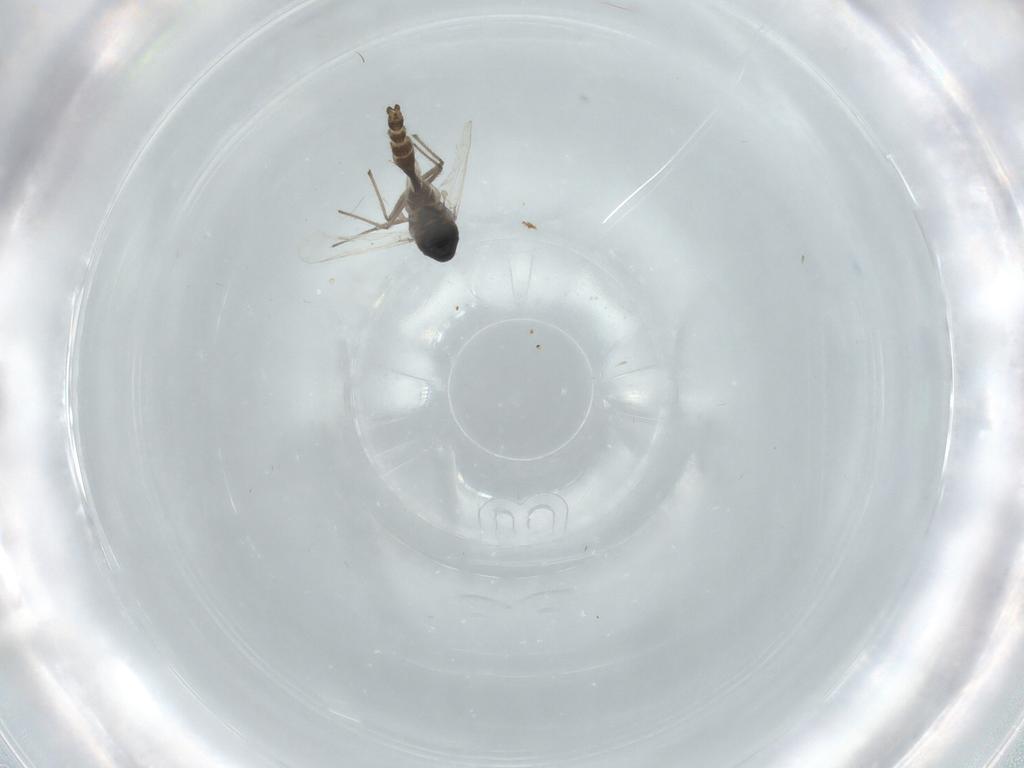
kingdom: Animalia
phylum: Arthropoda
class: Insecta
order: Diptera
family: Chironomidae
